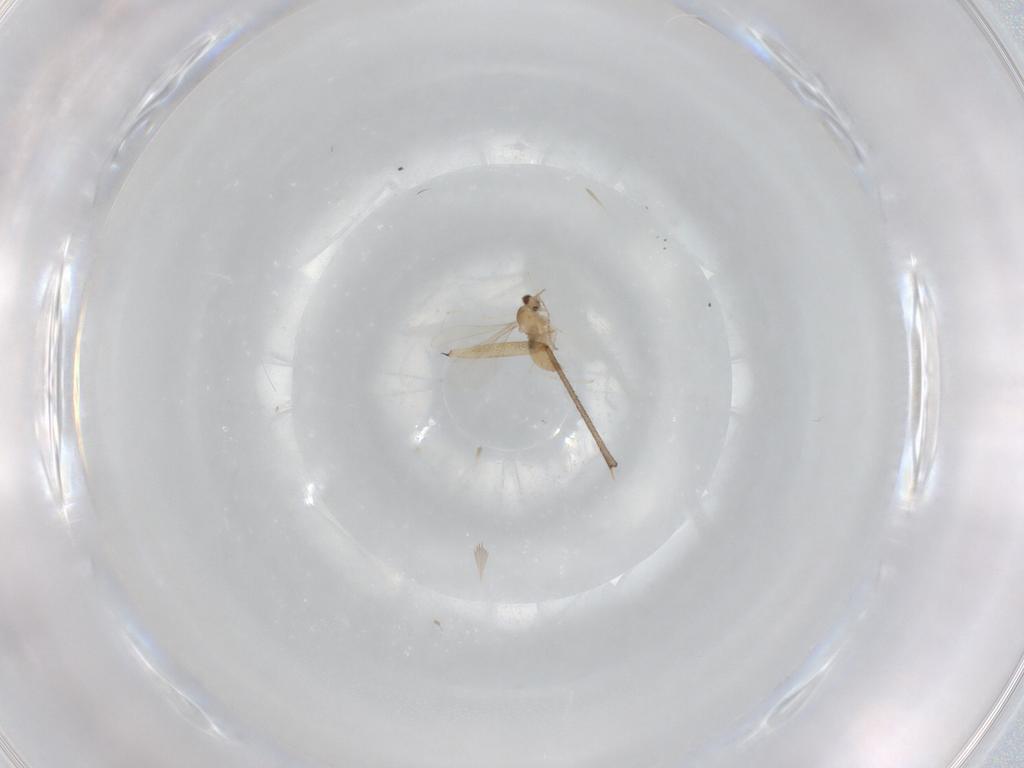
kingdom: Animalia
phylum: Arthropoda
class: Insecta
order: Diptera
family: Sciaridae
